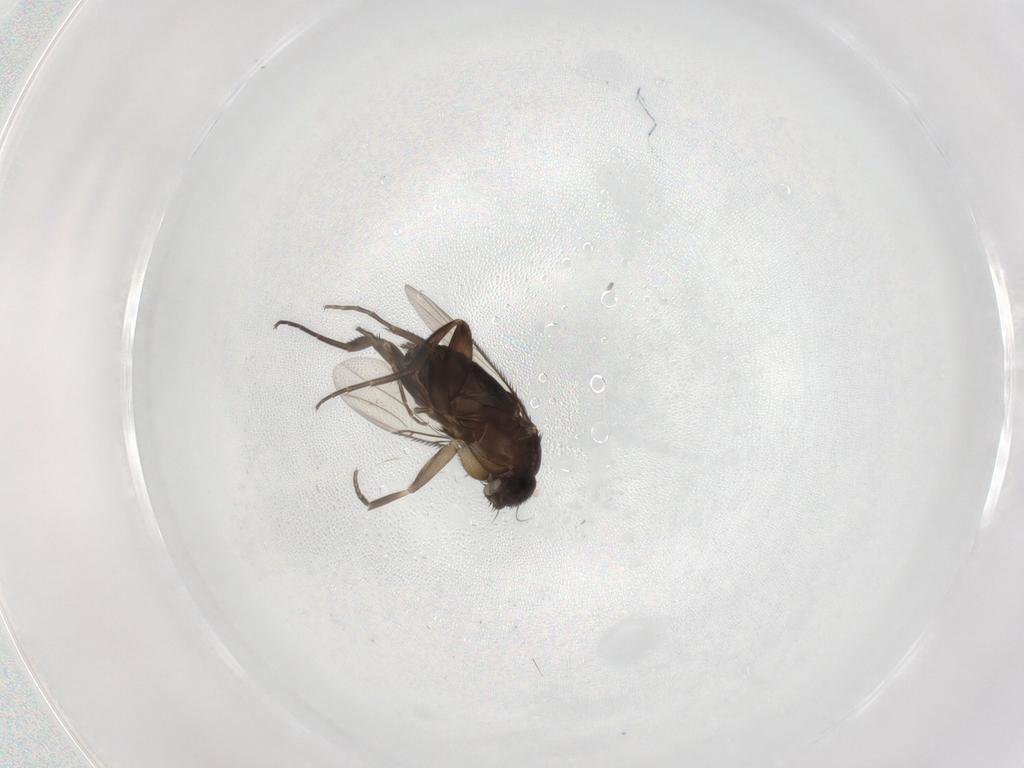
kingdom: Animalia
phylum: Arthropoda
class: Insecta
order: Diptera
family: Phoridae
